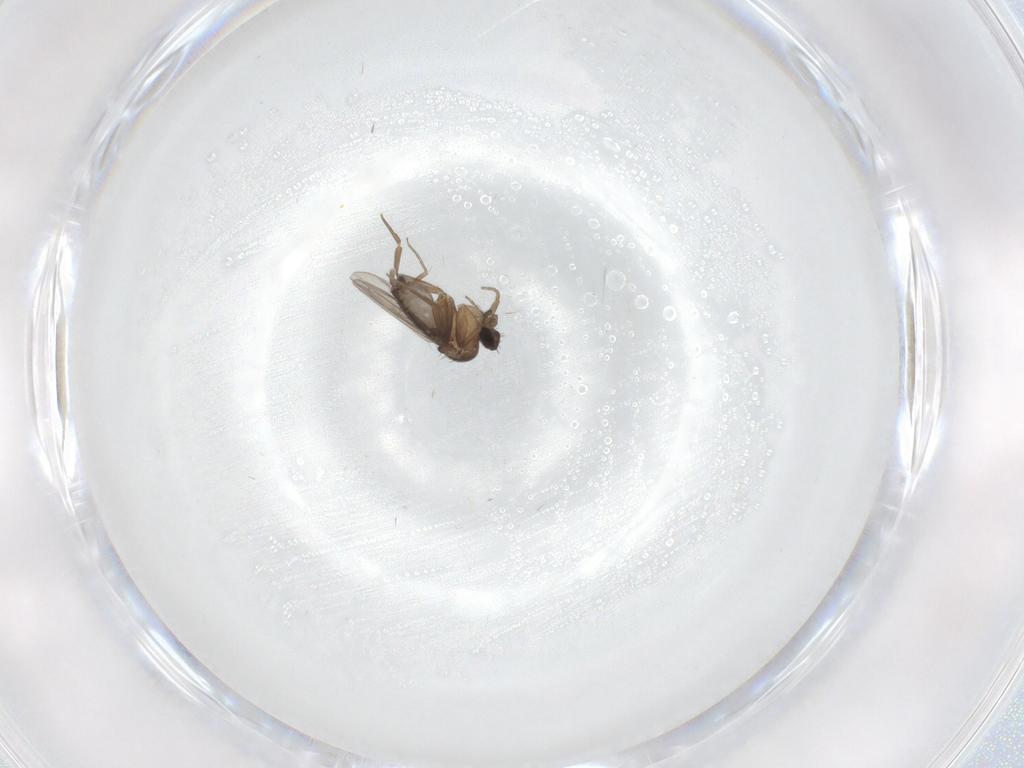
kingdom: Animalia
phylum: Arthropoda
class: Insecta
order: Diptera
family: Phoridae
